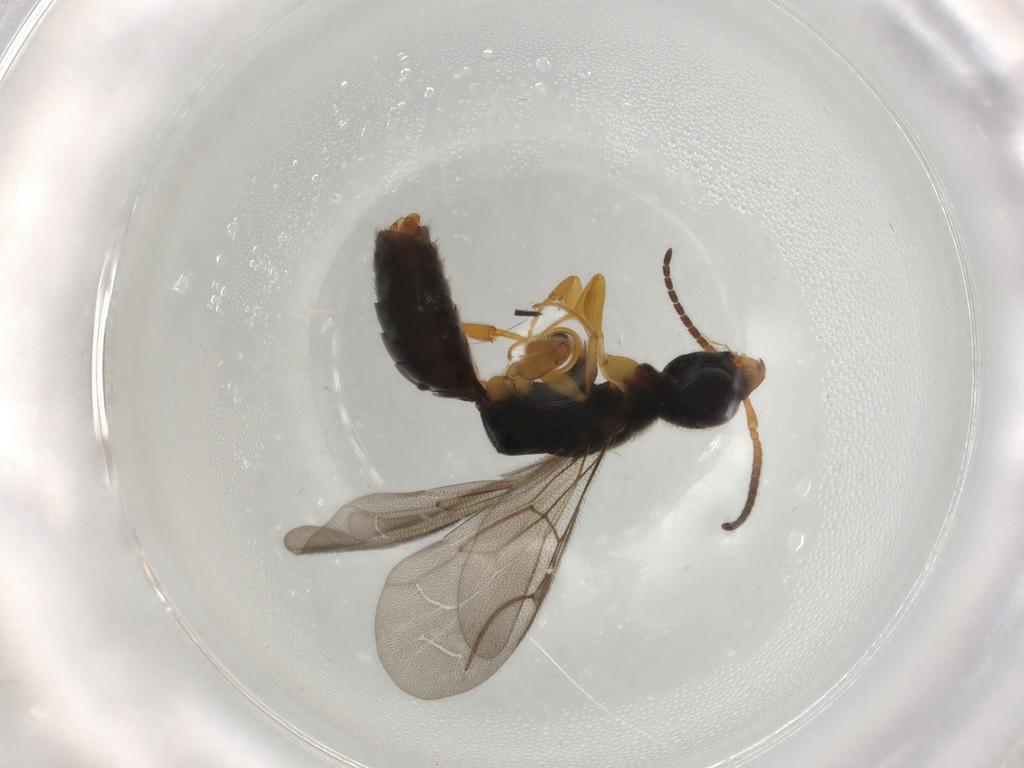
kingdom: Animalia
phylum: Arthropoda
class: Insecta
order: Hymenoptera
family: Bethylidae
